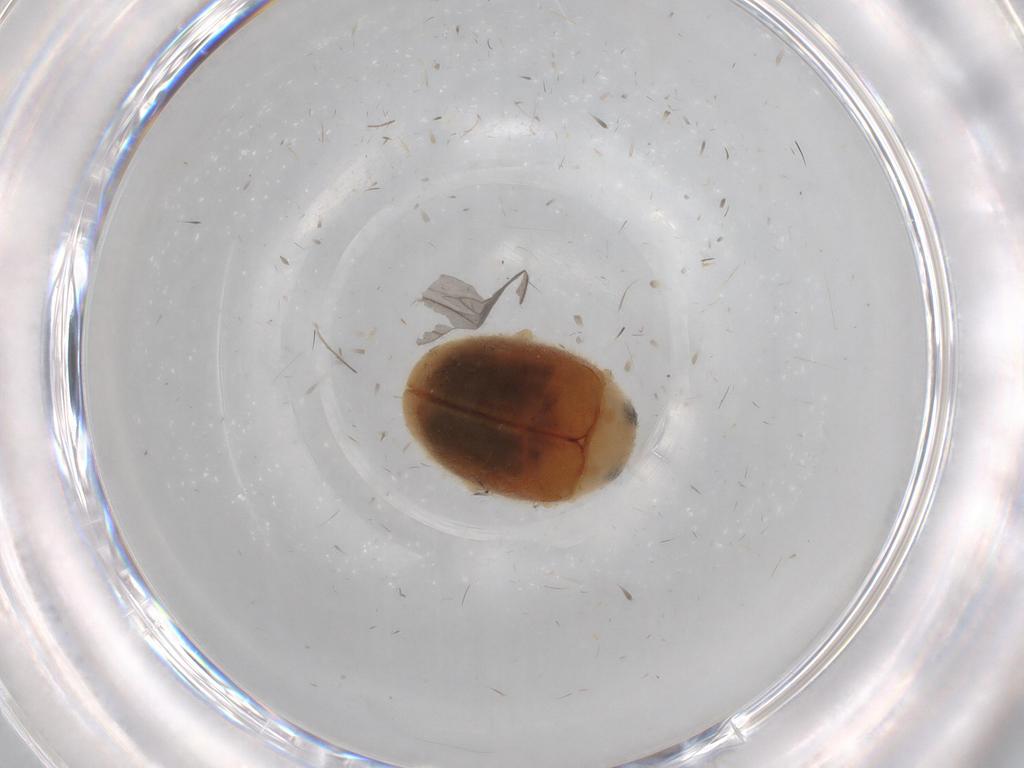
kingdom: Animalia
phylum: Arthropoda
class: Insecta
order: Coleoptera
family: Coccinellidae
